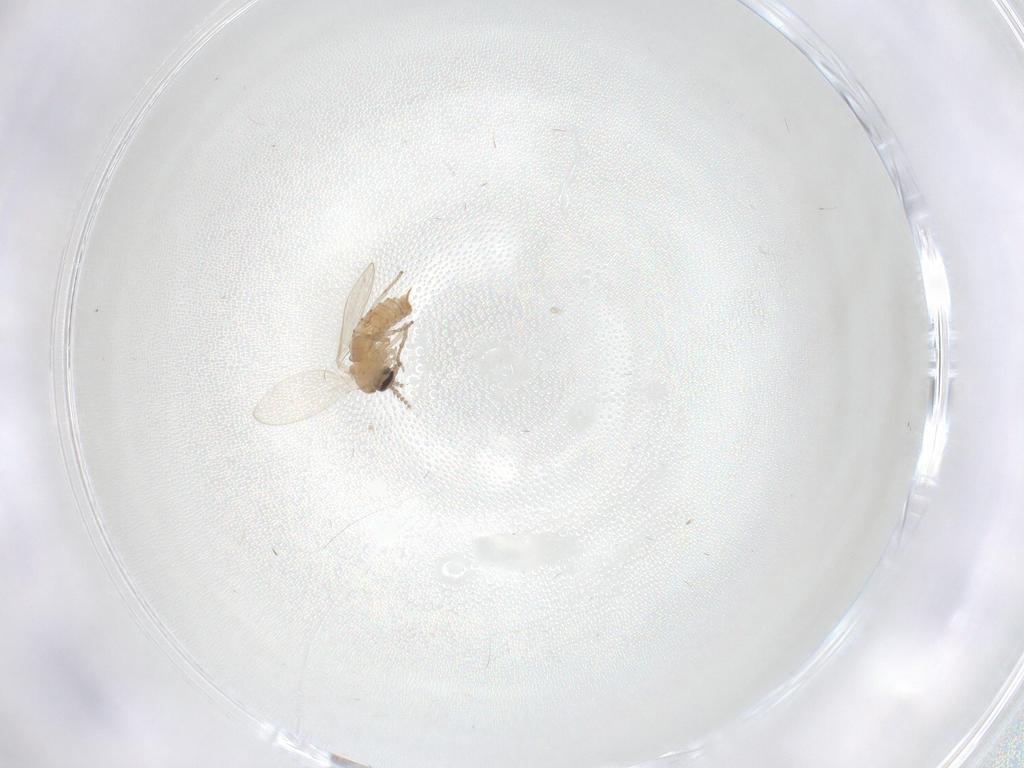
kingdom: Animalia
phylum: Arthropoda
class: Insecta
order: Diptera
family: Psychodidae
